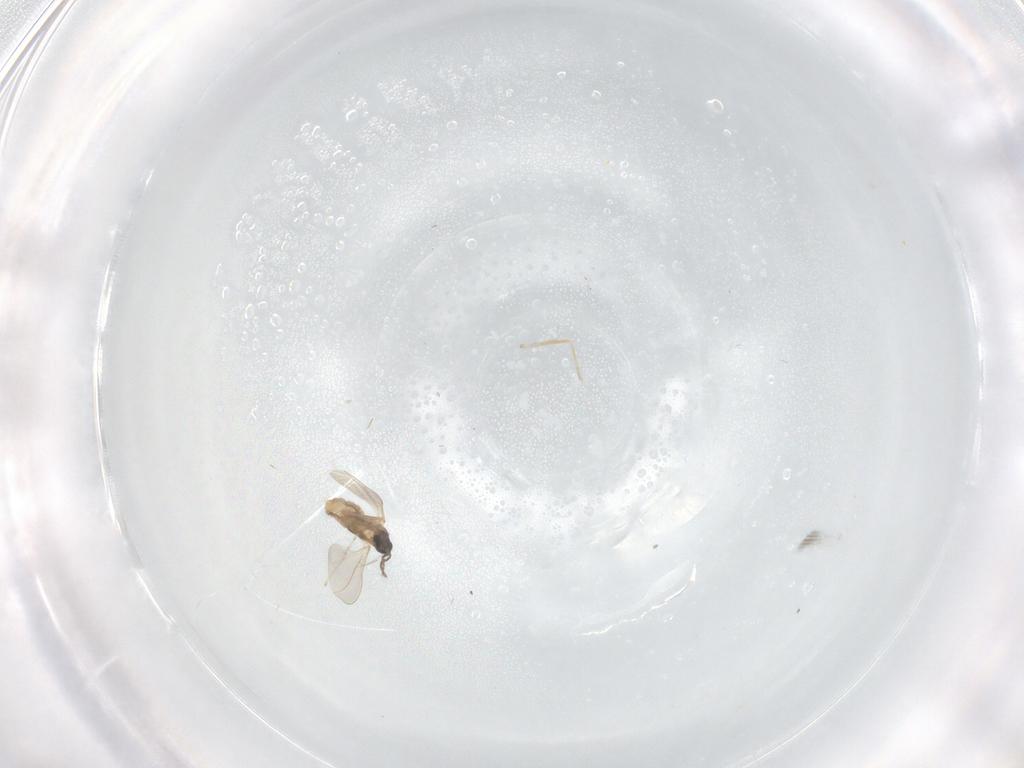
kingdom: Animalia
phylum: Arthropoda
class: Insecta
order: Diptera
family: Cecidomyiidae
